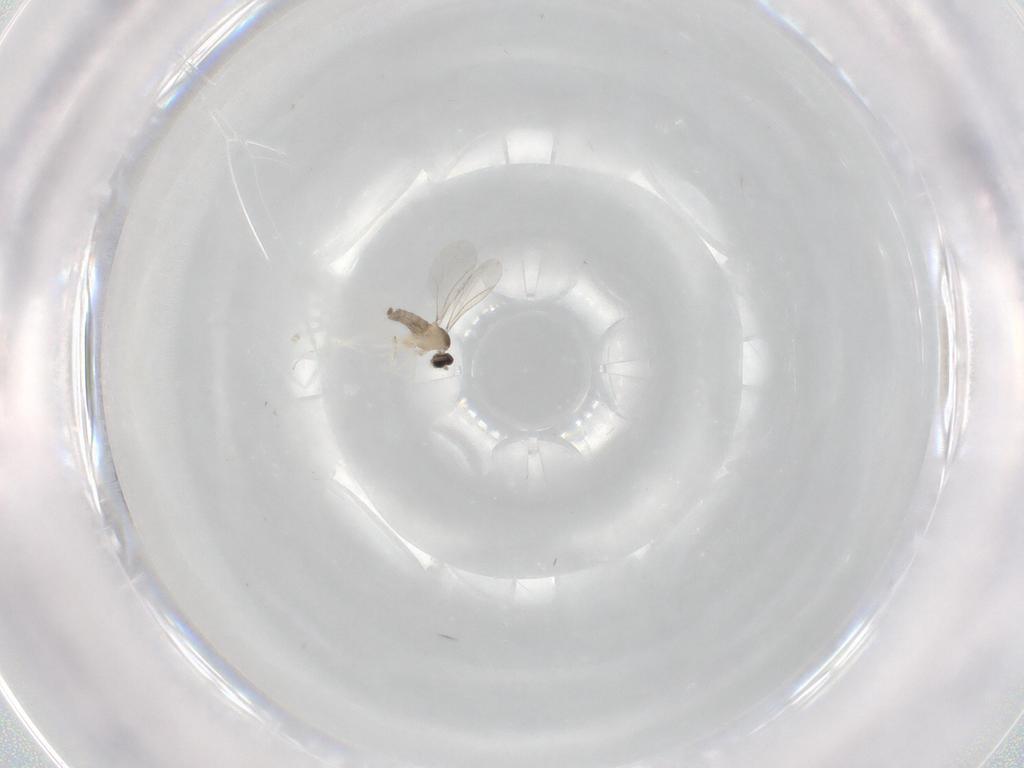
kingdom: Animalia
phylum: Arthropoda
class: Insecta
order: Diptera
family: Cecidomyiidae
